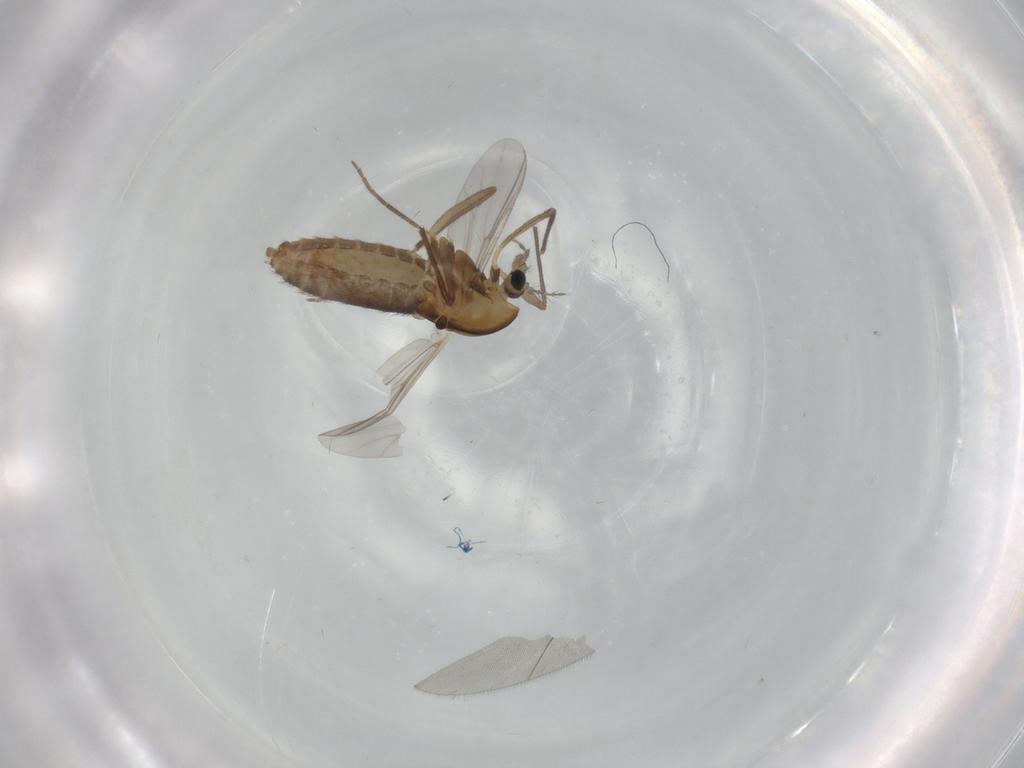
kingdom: Animalia
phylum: Arthropoda
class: Insecta
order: Diptera
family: Chironomidae
